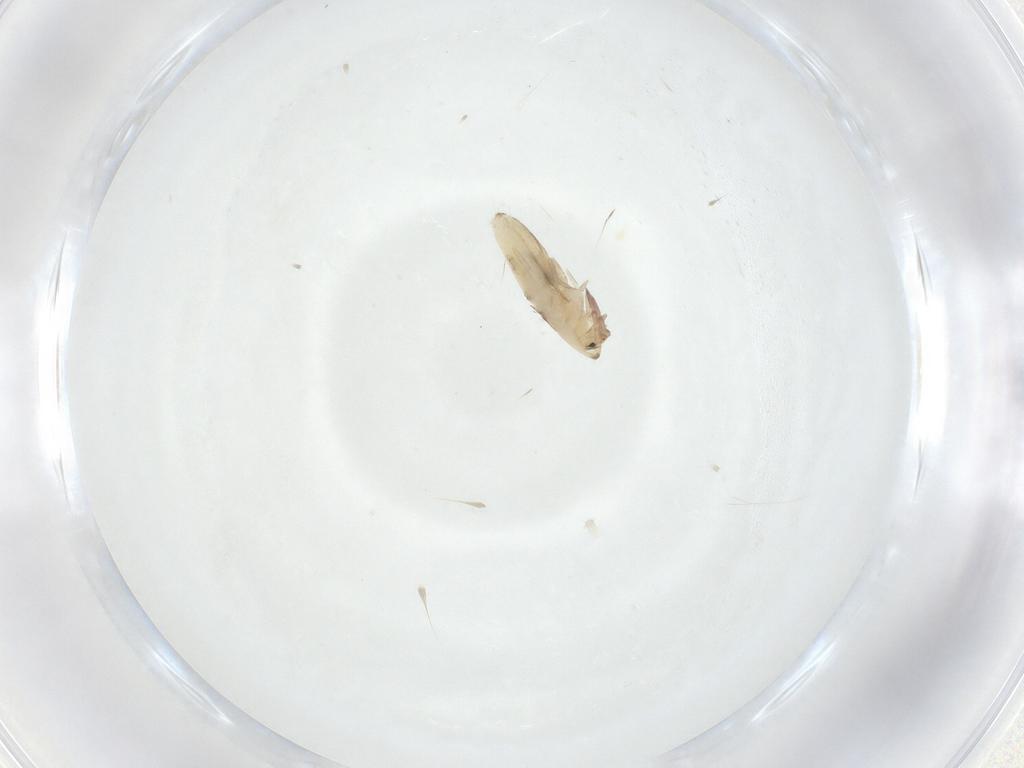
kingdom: Animalia
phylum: Arthropoda
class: Collembola
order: Entomobryomorpha
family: Entomobryidae
